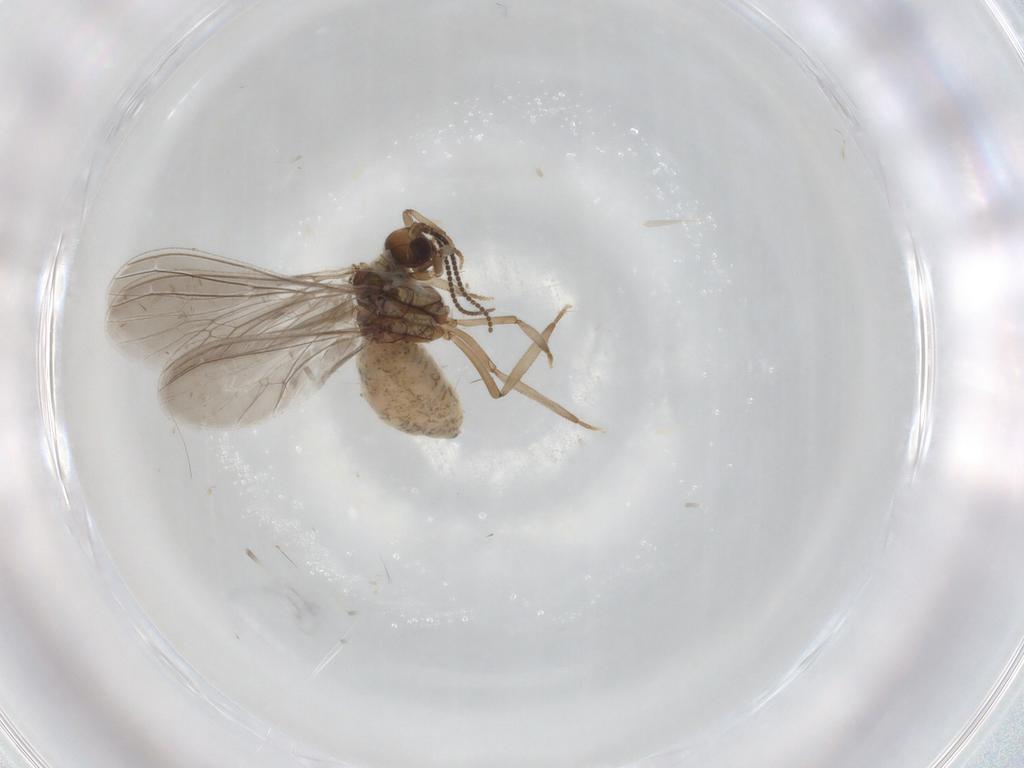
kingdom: Animalia
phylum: Arthropoda
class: Insecta
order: Neuroptera
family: Coniopterygidae
